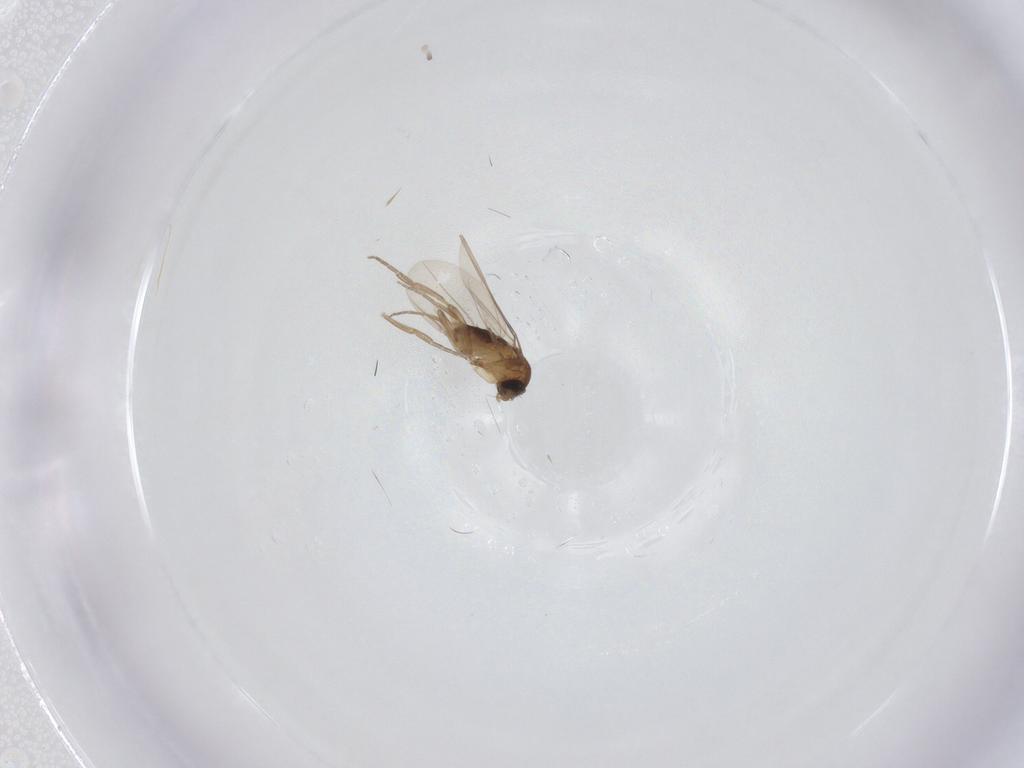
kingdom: Animalia
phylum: Arthropoda
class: Insecta
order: Diptera
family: Phoridae
